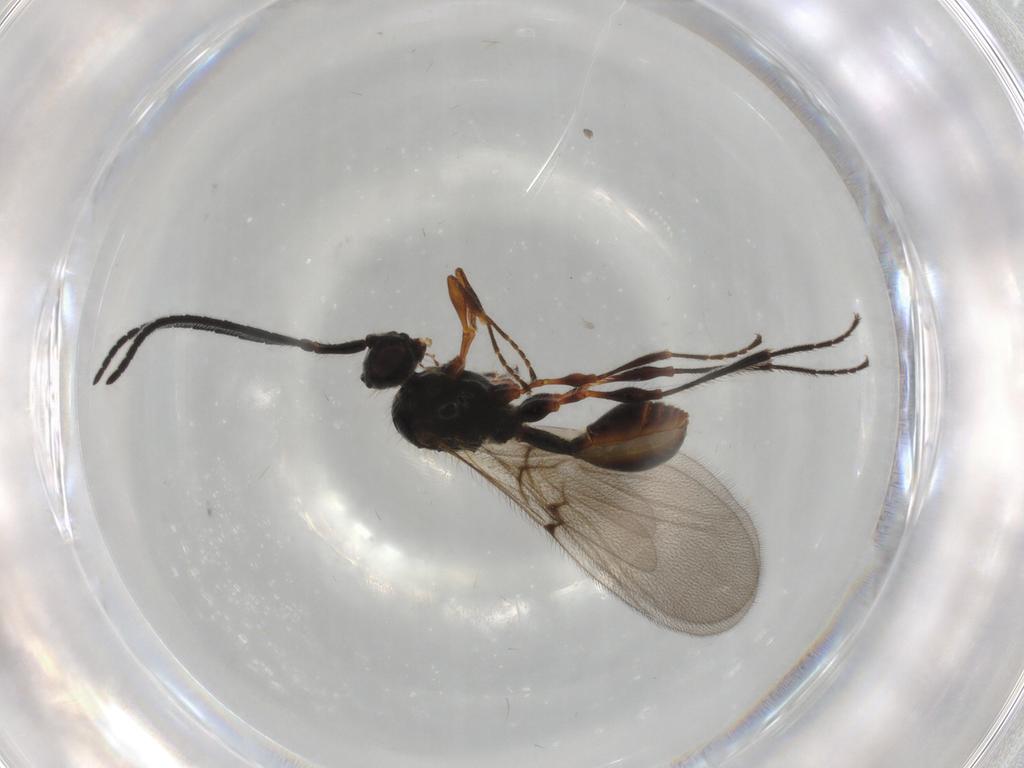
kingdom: Animalia
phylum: Arthropoda
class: Insecta
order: Hymenoptera
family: Diapriidae
